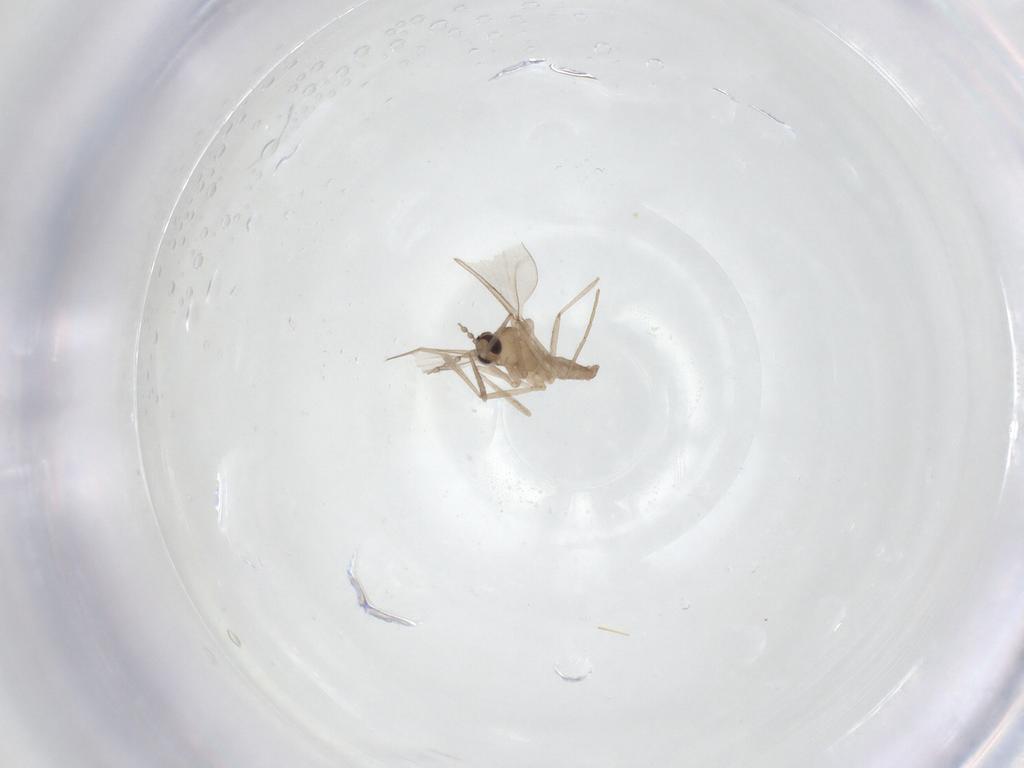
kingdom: Animalia
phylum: Arthropoda
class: Insecta
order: Diptera
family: Cecidomyiidae
